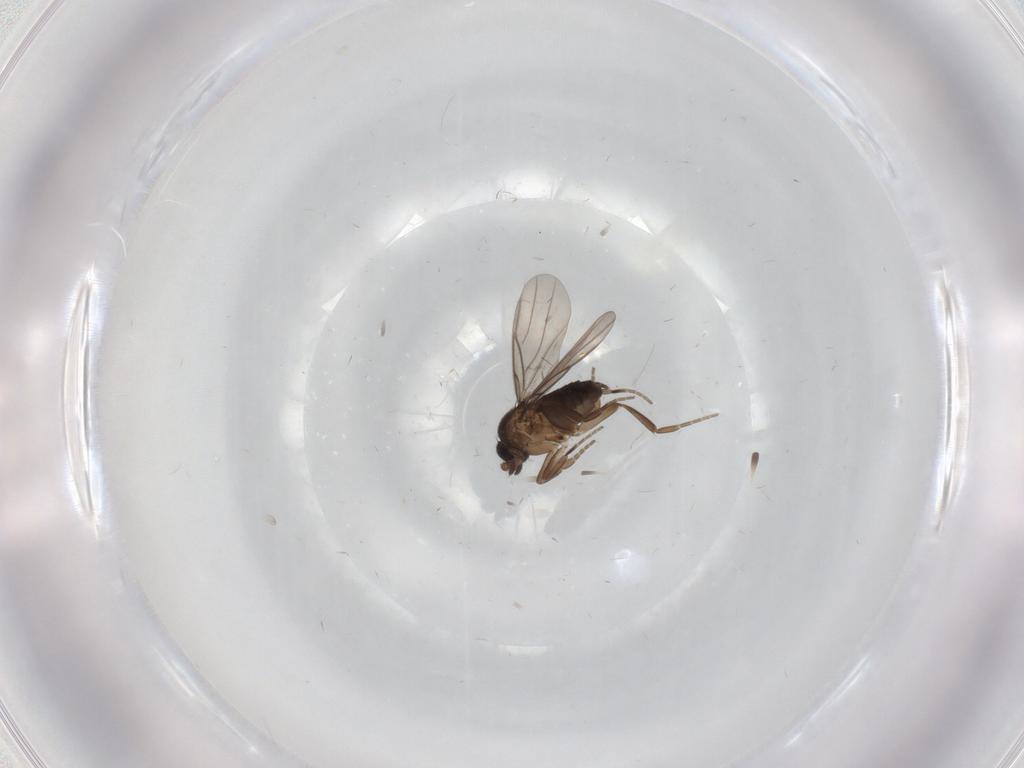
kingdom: Animalia
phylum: Arthropoda
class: Insecta
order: Diptera
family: Phoridae
